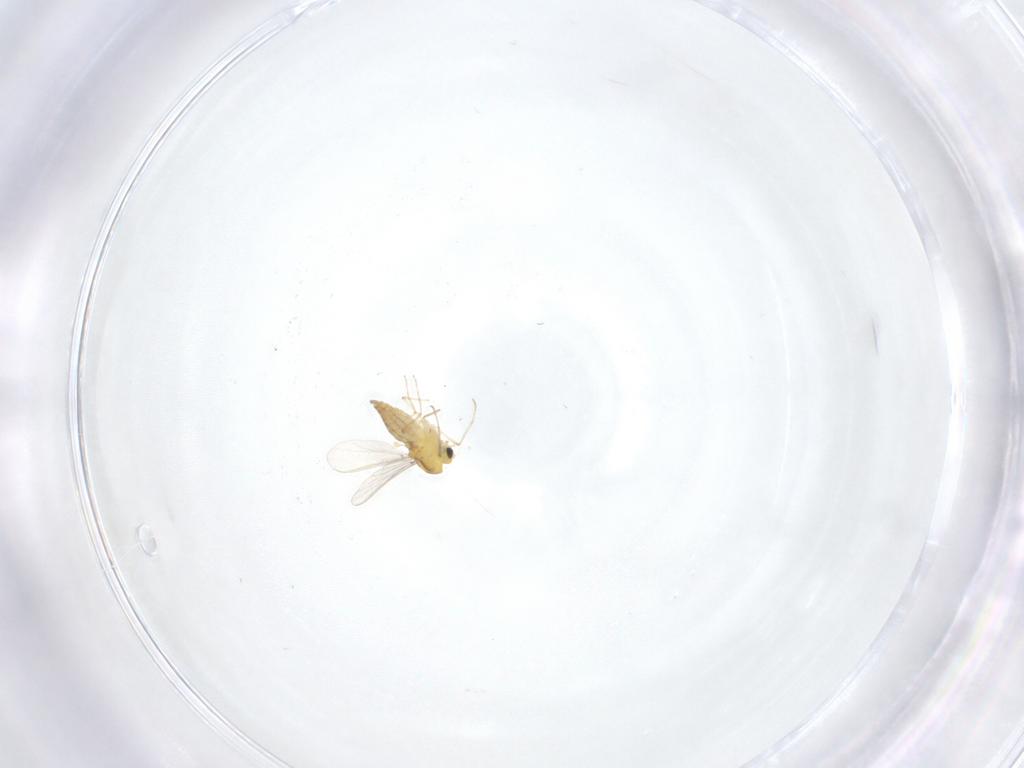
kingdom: Animalia
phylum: Arthropoda
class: Insecta
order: Diptera
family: Chironomidae
